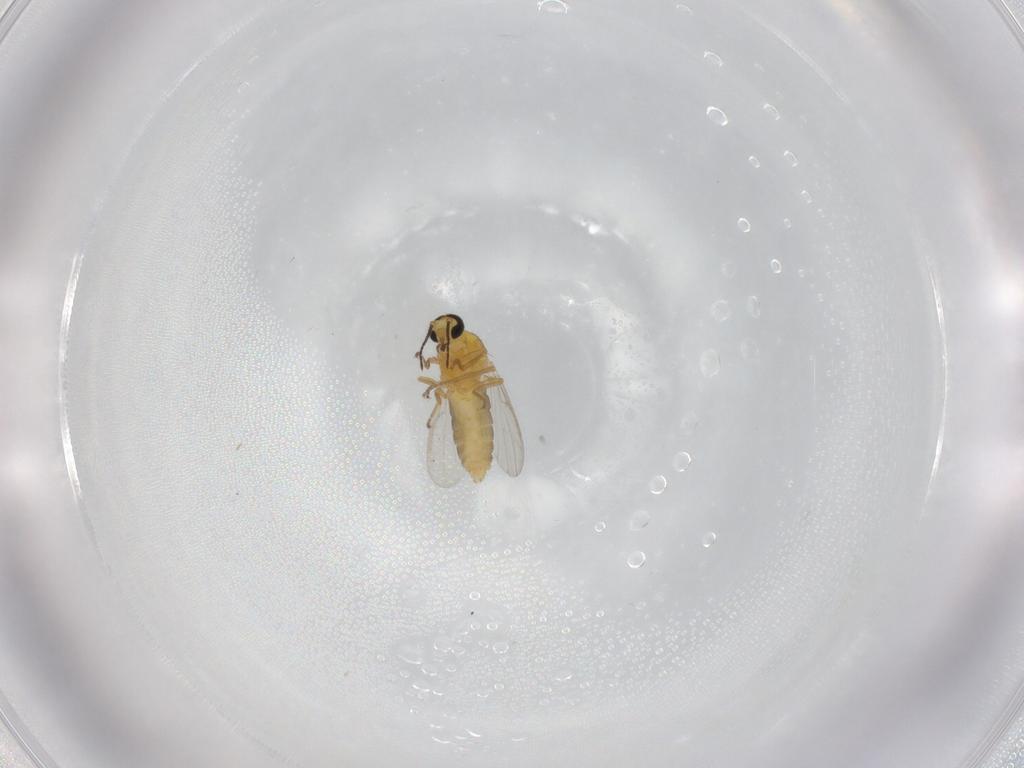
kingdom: Animalia
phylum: Arthropoda
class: Insecta
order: Diptera
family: Ceratopogonidae
